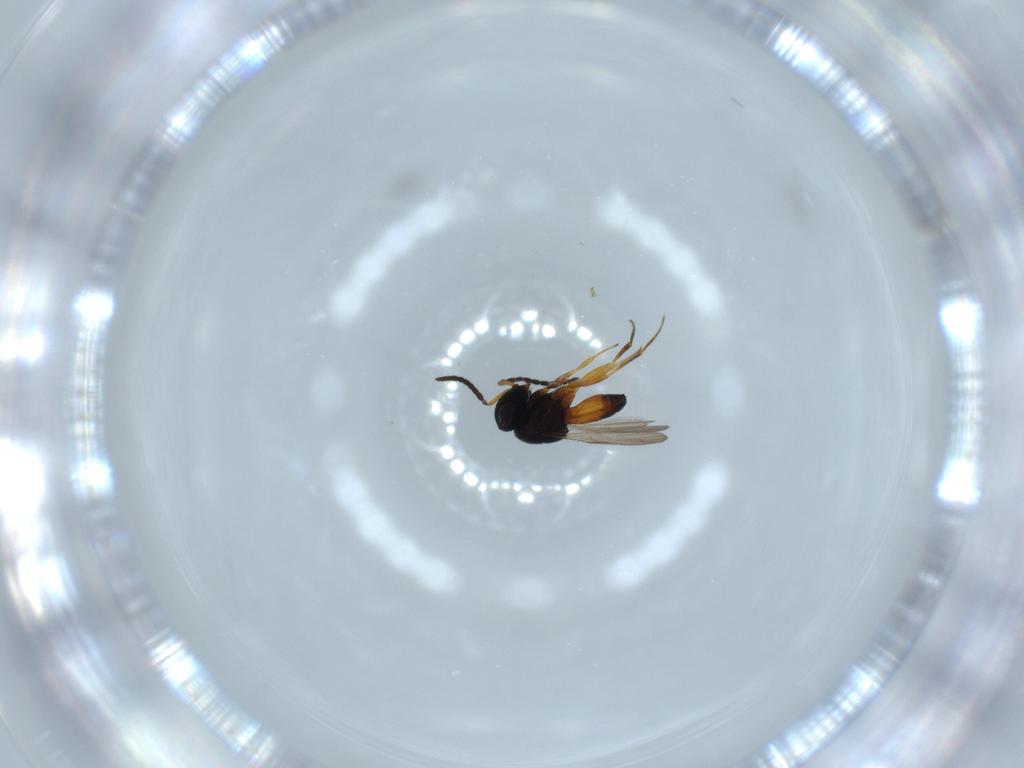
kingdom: Animalia
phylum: Arthropoda
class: Insecta
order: Hymenoptera
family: Scelionidae
